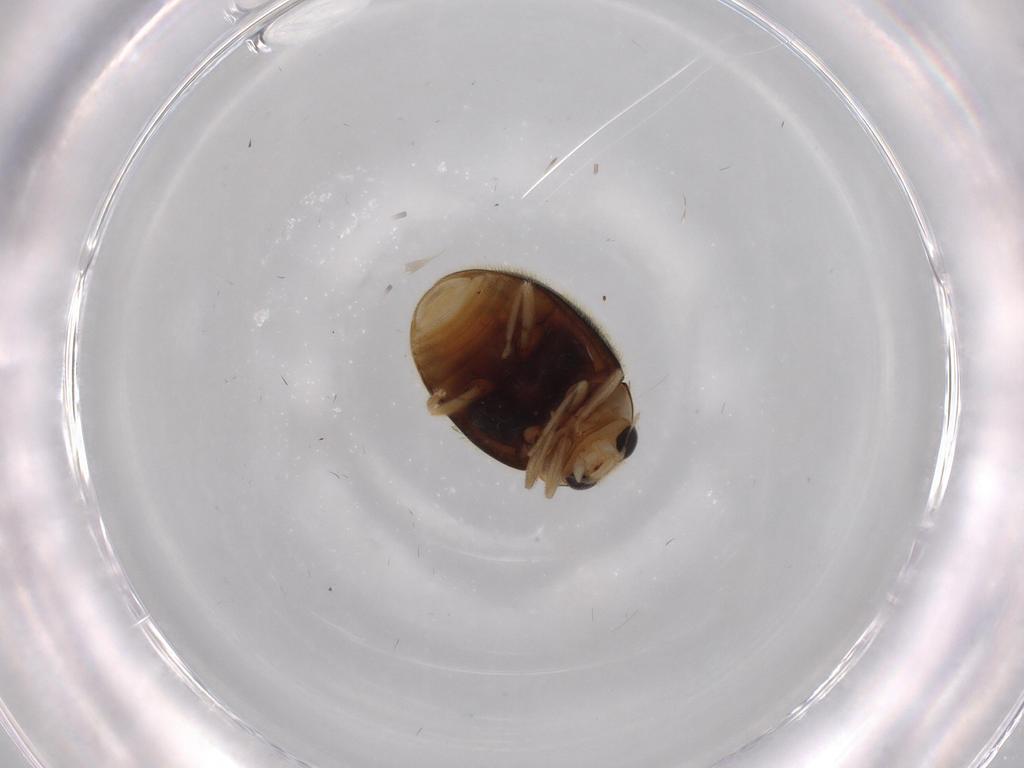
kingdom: Animalia
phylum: Arthropoda
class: Insecta
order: Coleoptera
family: Coccinellidae
